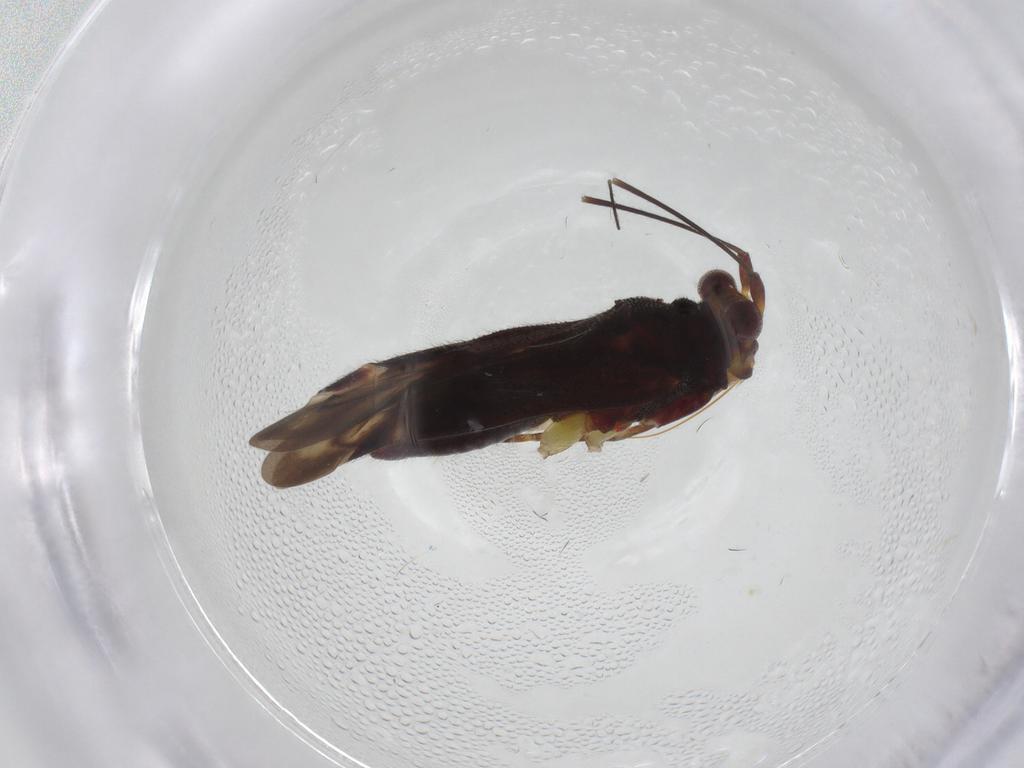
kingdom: Animalia
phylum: Arthropoda
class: Insecta
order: Hemiptera
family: Miridae
